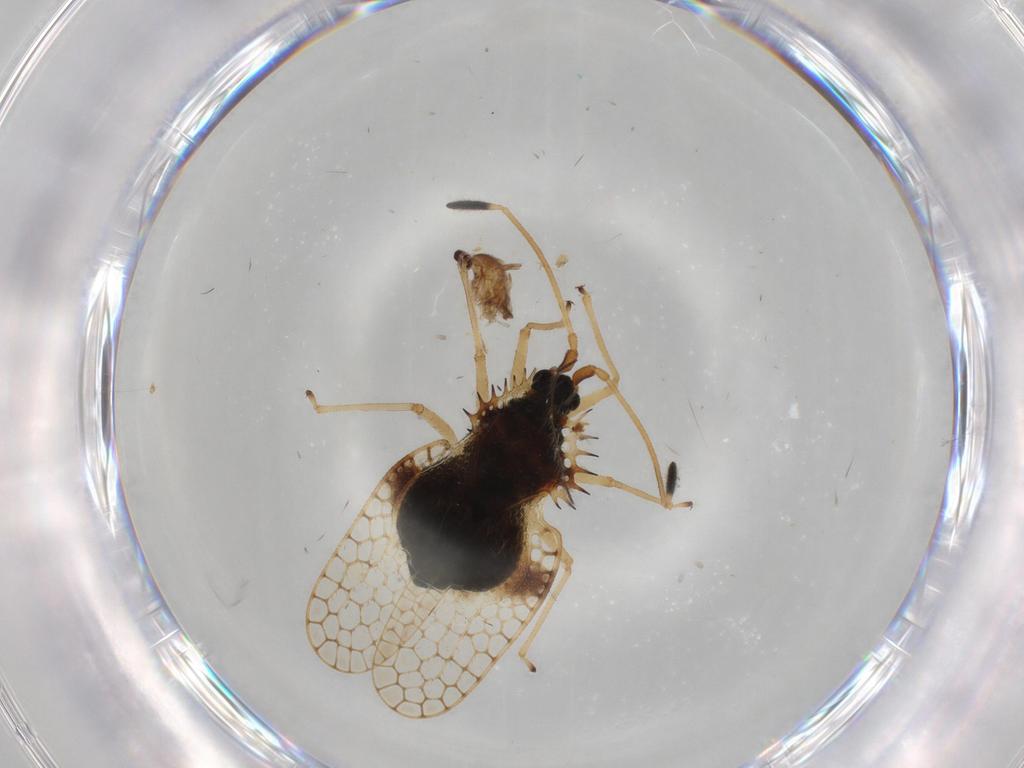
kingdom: Animalia
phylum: Arthropoda
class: Insecta
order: Diptera
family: Cecidomyiidae
